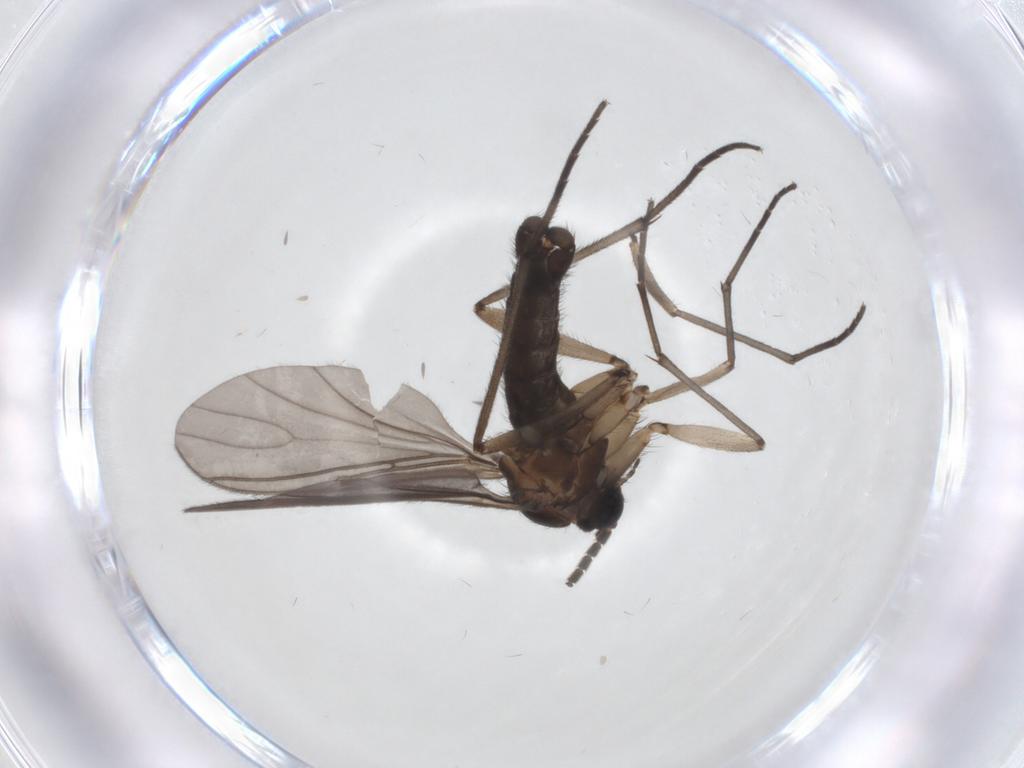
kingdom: Animalia
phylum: Arthropoda
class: Insecta
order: Diptera
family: Sciaridae
